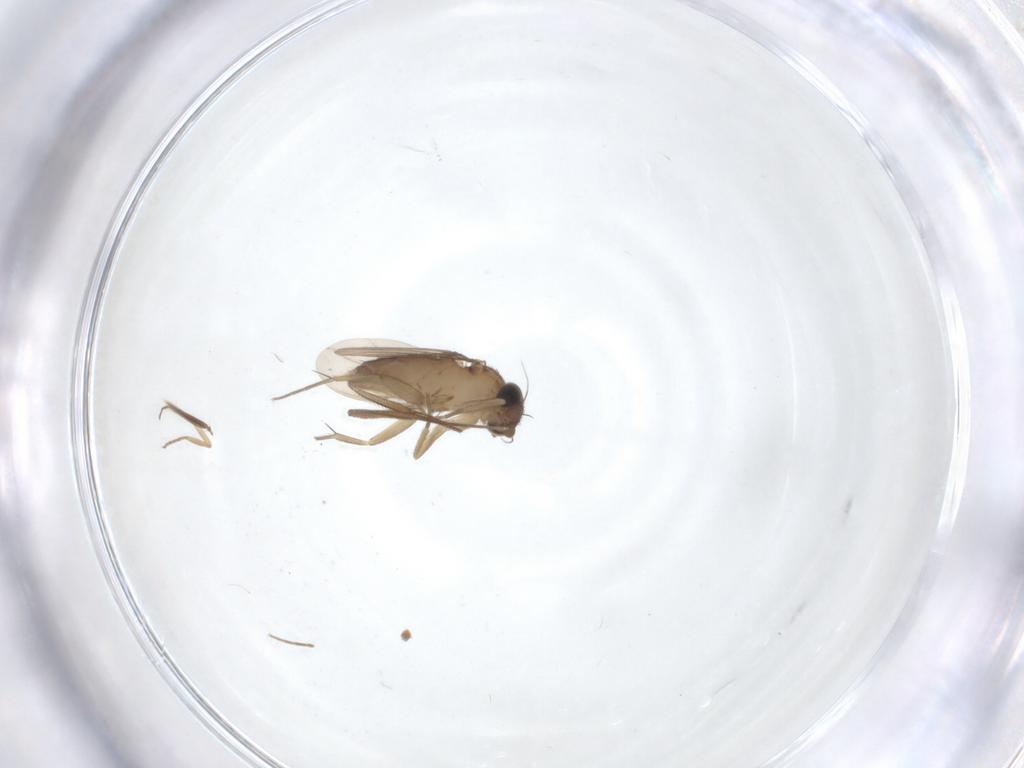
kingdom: Animalia
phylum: Arthropoda
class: Insecta
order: Diptera
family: Phoridae
